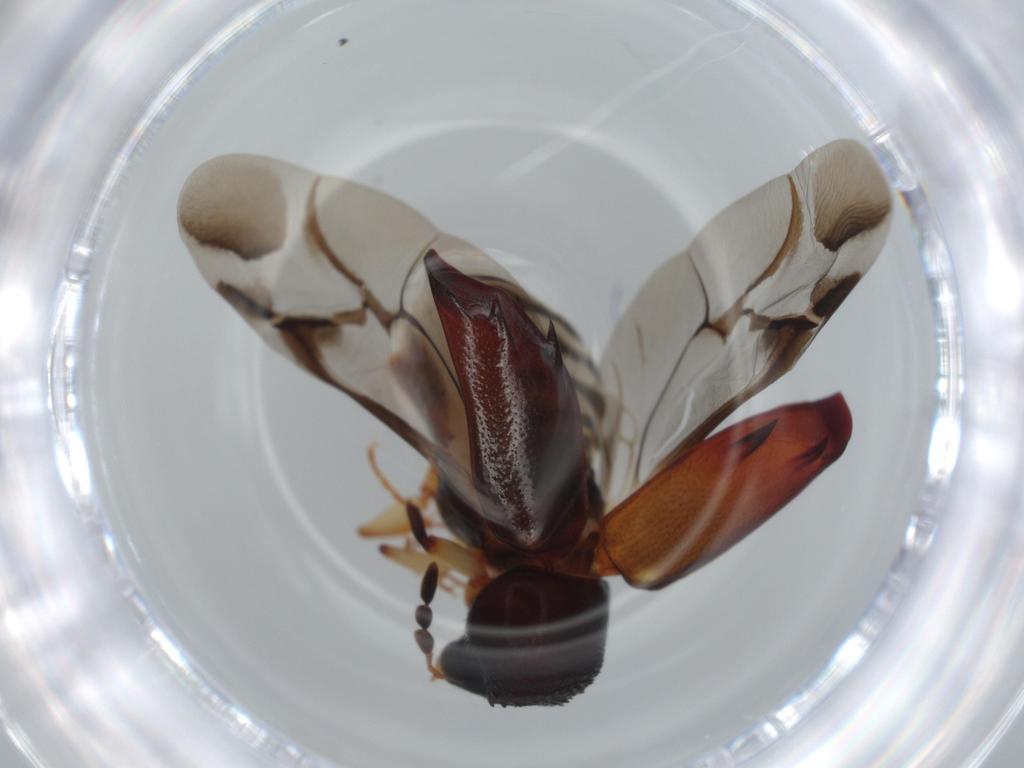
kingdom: Animalia
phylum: Arthropoda
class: Insecta
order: Coleoptera
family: Bostrichidae
